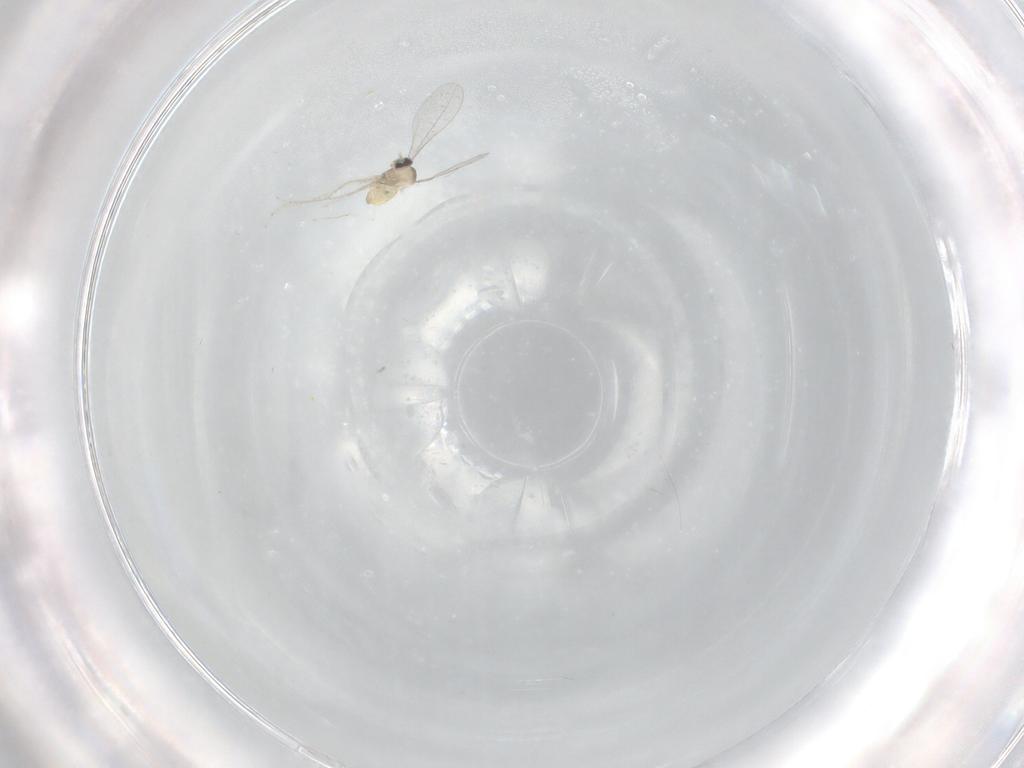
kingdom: Animalia
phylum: Arthropoda
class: Insecta
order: Diptera
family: Cecidomyiidae
